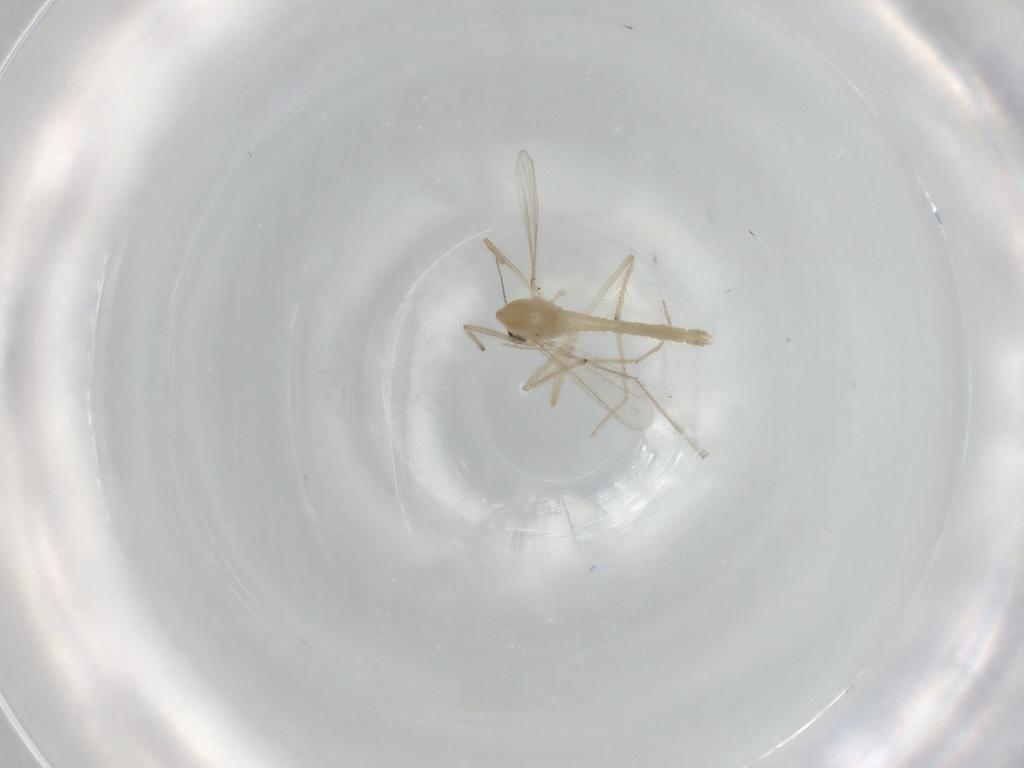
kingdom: Animalia
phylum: Arthropoda
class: Insecta
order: Diptera
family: Chironomidae
